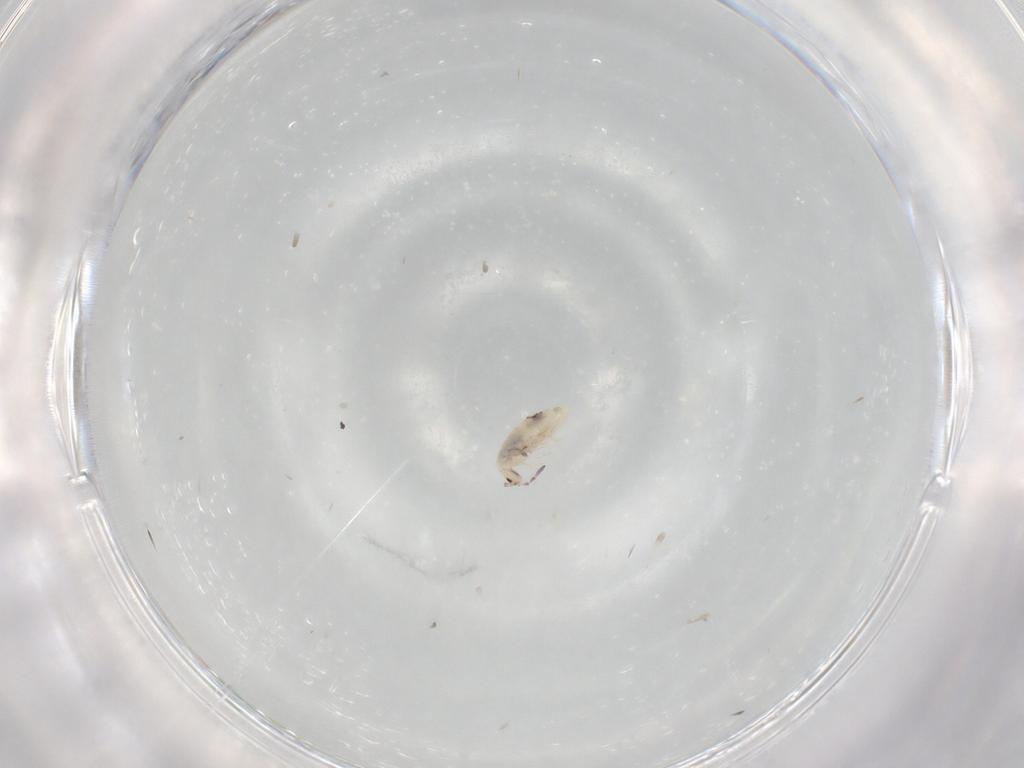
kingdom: Animalia
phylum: Arthropoda
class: Collembola
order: Entomobryomorpha
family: Entomobryidae
